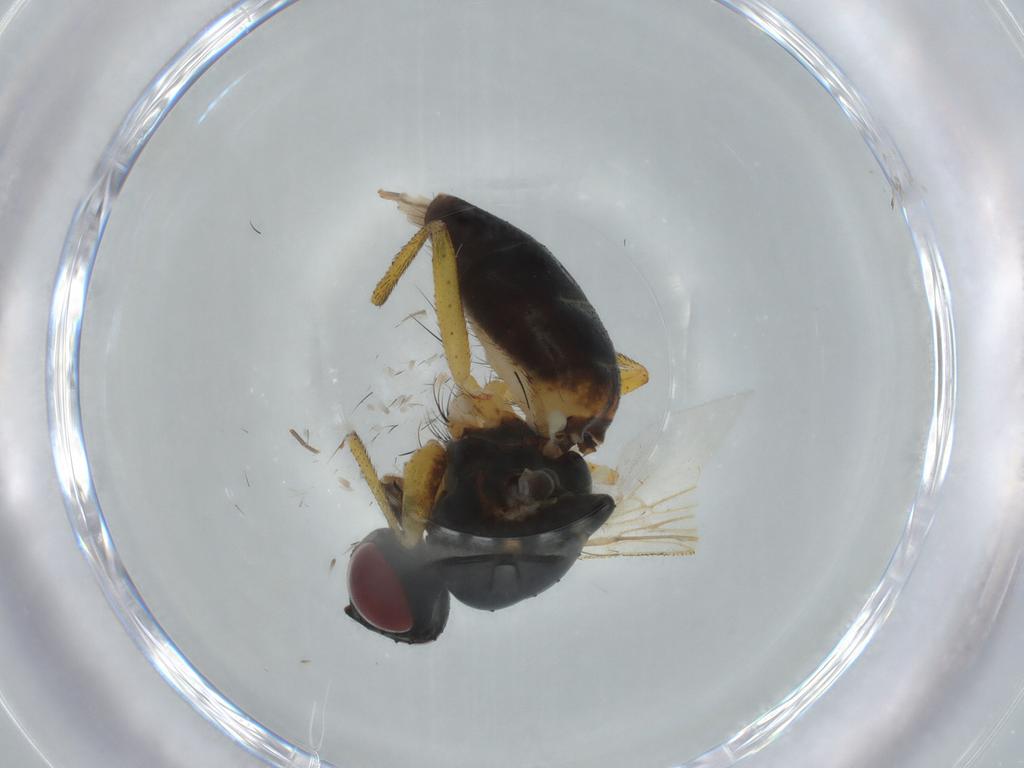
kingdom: Animalia
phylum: Arthropoda
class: Insecta
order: Diptera
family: Muscidae
